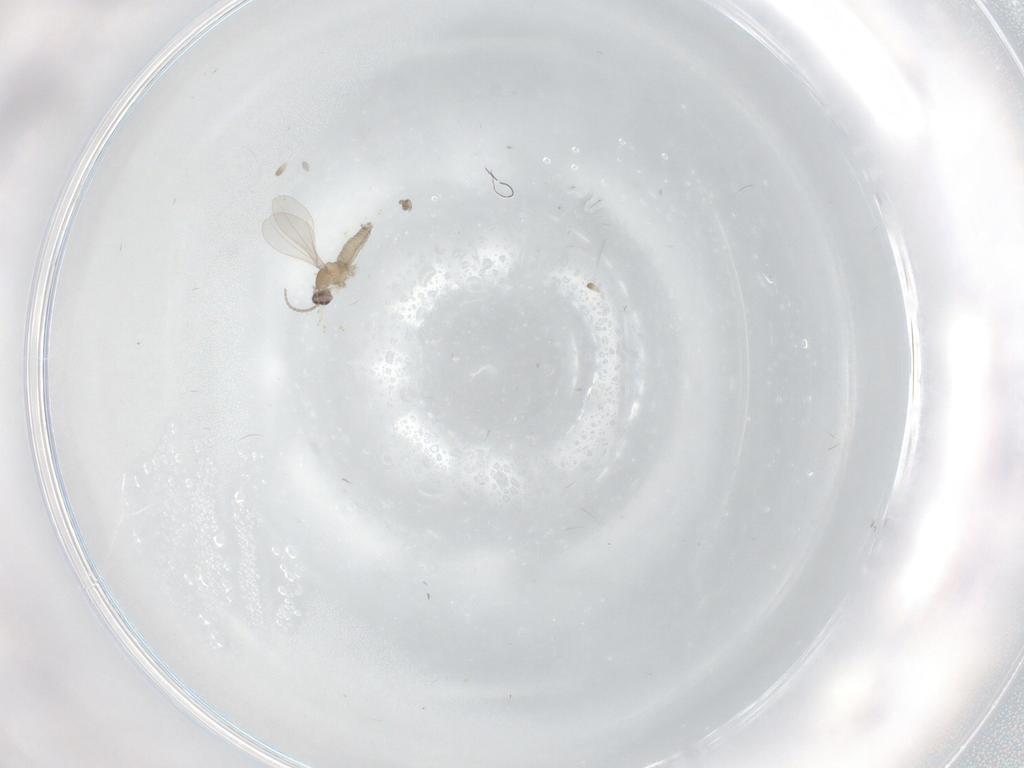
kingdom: Animalia
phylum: Arthropoda
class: Insecta
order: Diptera
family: Cecidomyiidae
